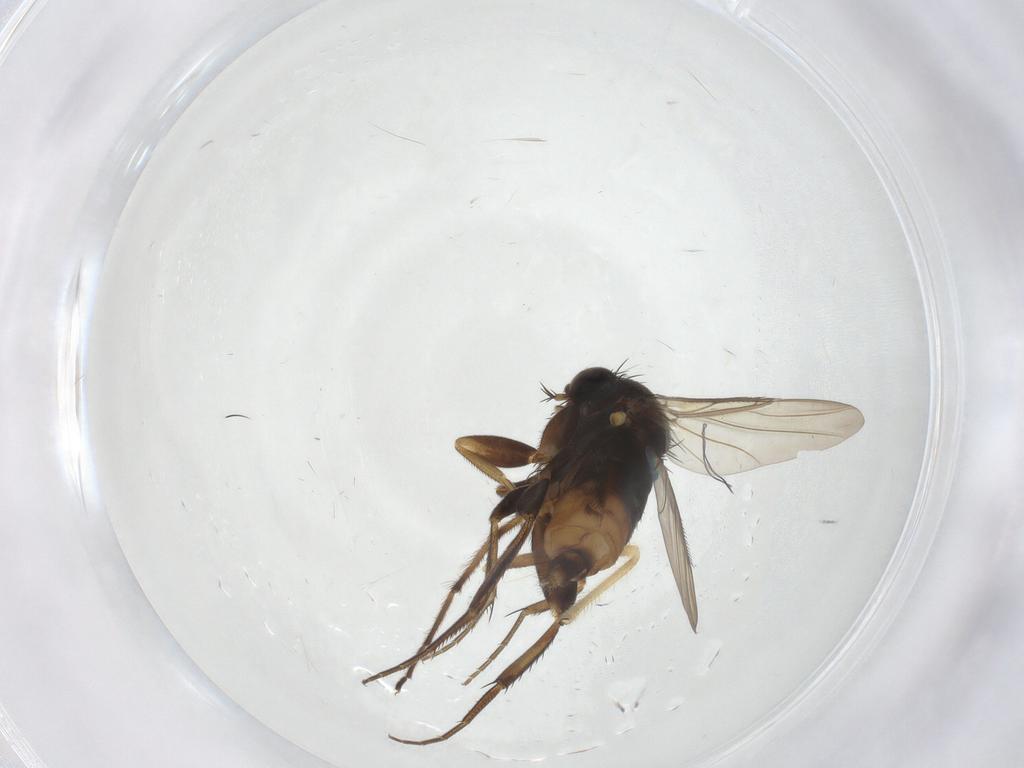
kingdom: Animalia
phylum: Arthropoda
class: Insecta
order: Diptera
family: Phoridae
